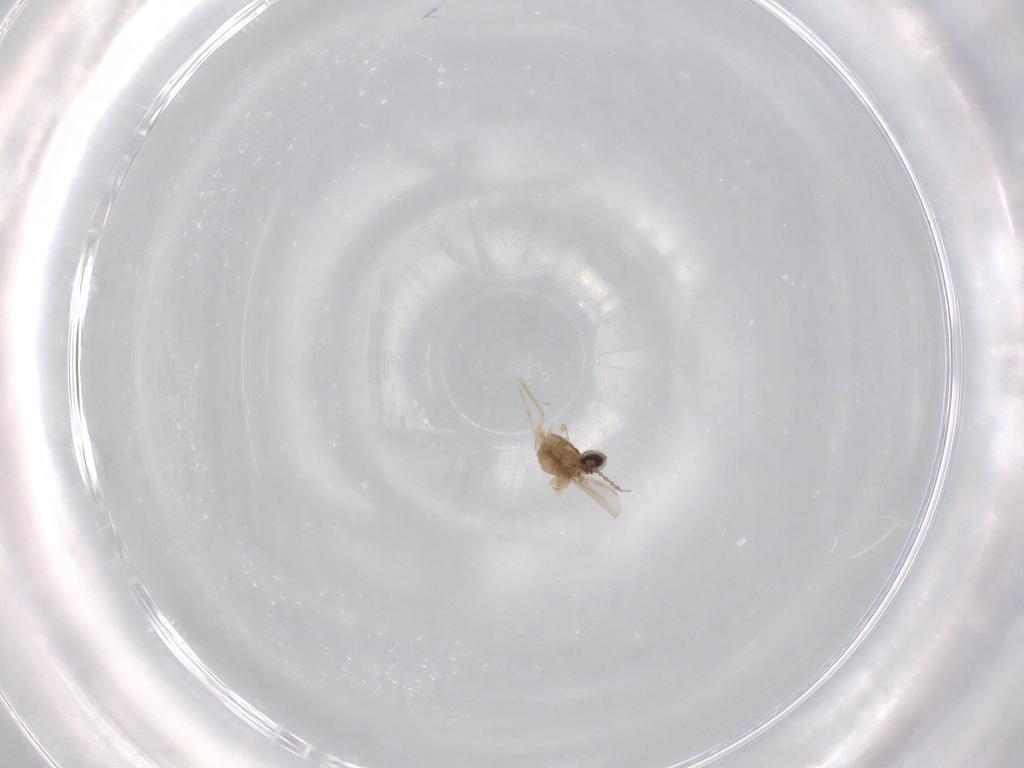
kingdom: Animalia
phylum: Arthropoda
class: Insecta
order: Diptera
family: Cecidomyiidae
